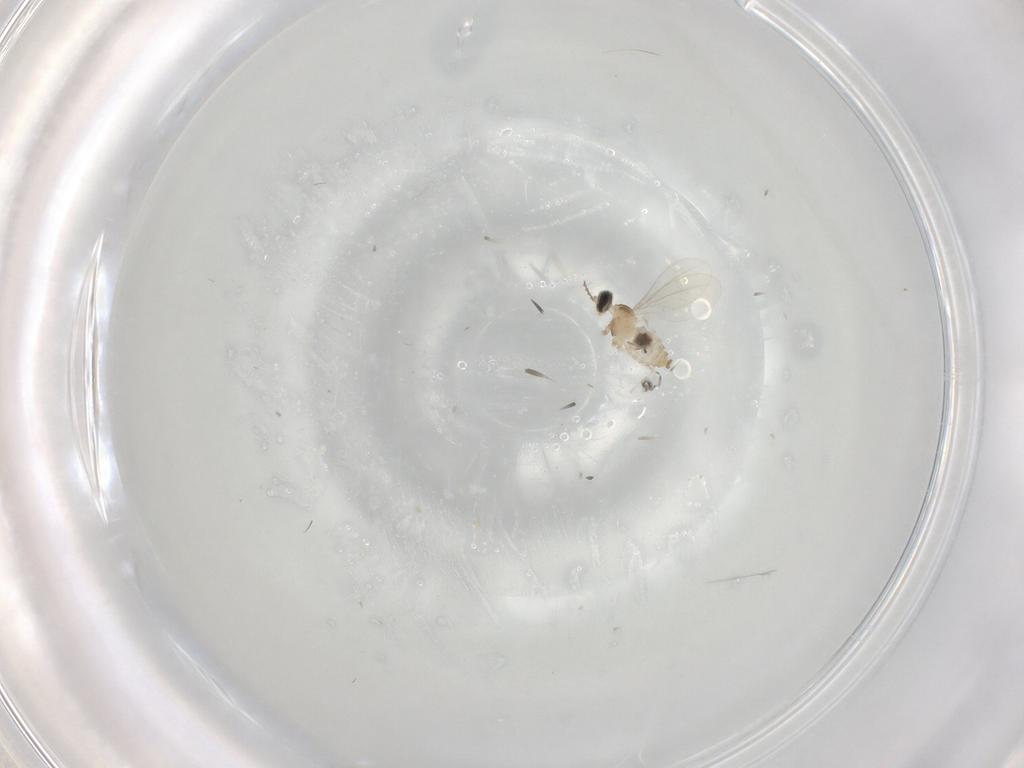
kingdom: Animalia
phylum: Arthropoda
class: Insecta
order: Diptera
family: Cecidomyiidae
